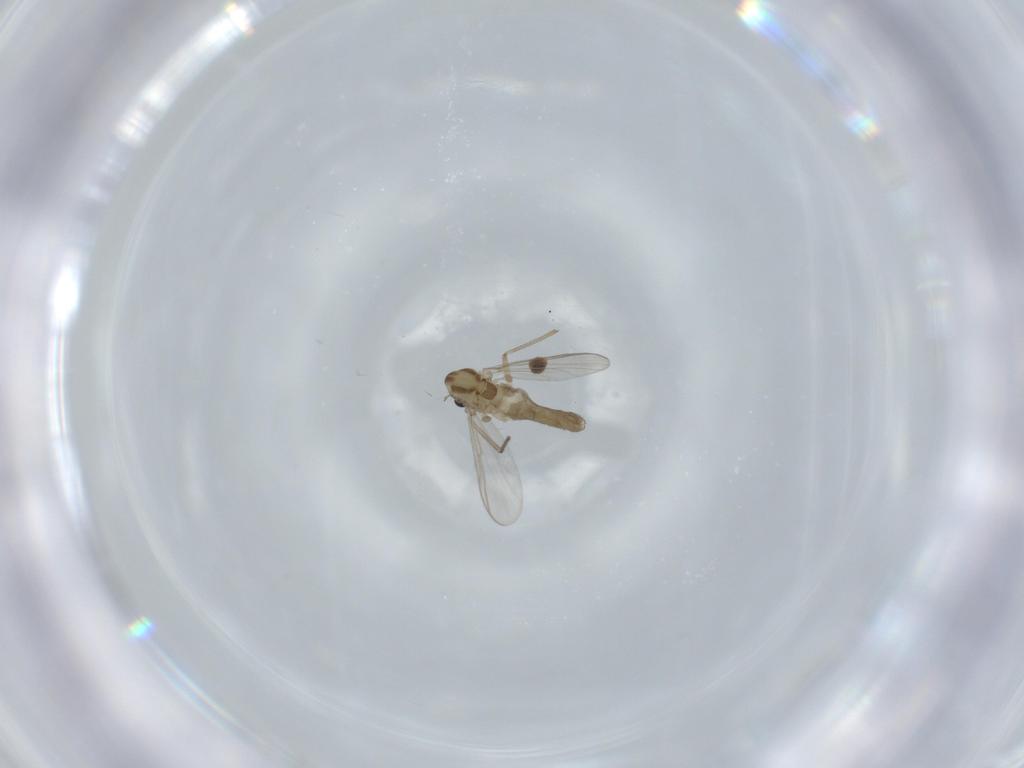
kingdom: Animalia
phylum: Arthropoda
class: Insecta
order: Diptera
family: Chironomidae
